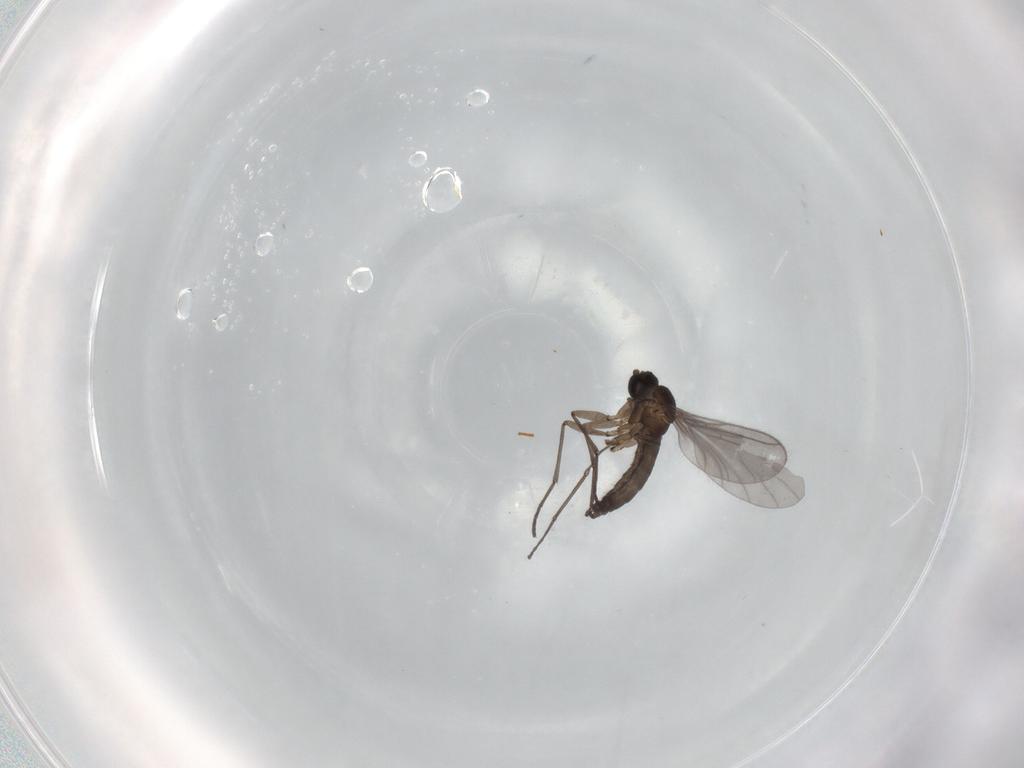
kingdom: Animalia
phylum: Arthropoda
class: Insecta
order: Diptera
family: Sciaridae
